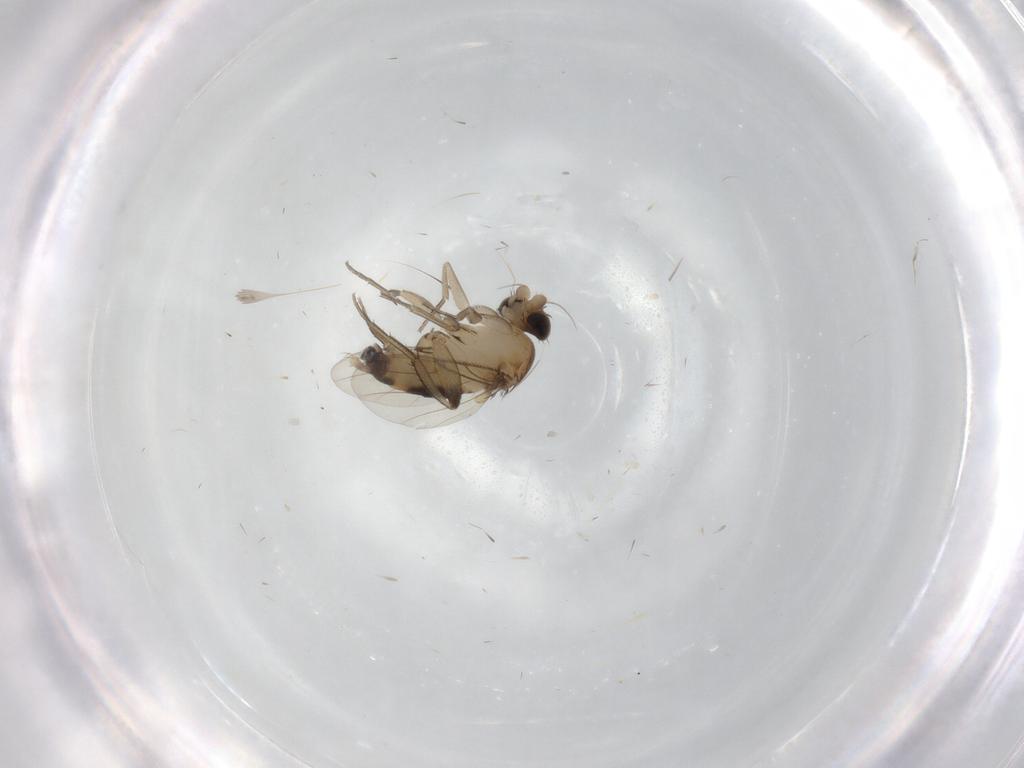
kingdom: Animalia
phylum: Arthropoda
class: Insecta
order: Diptera
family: Phoridae
